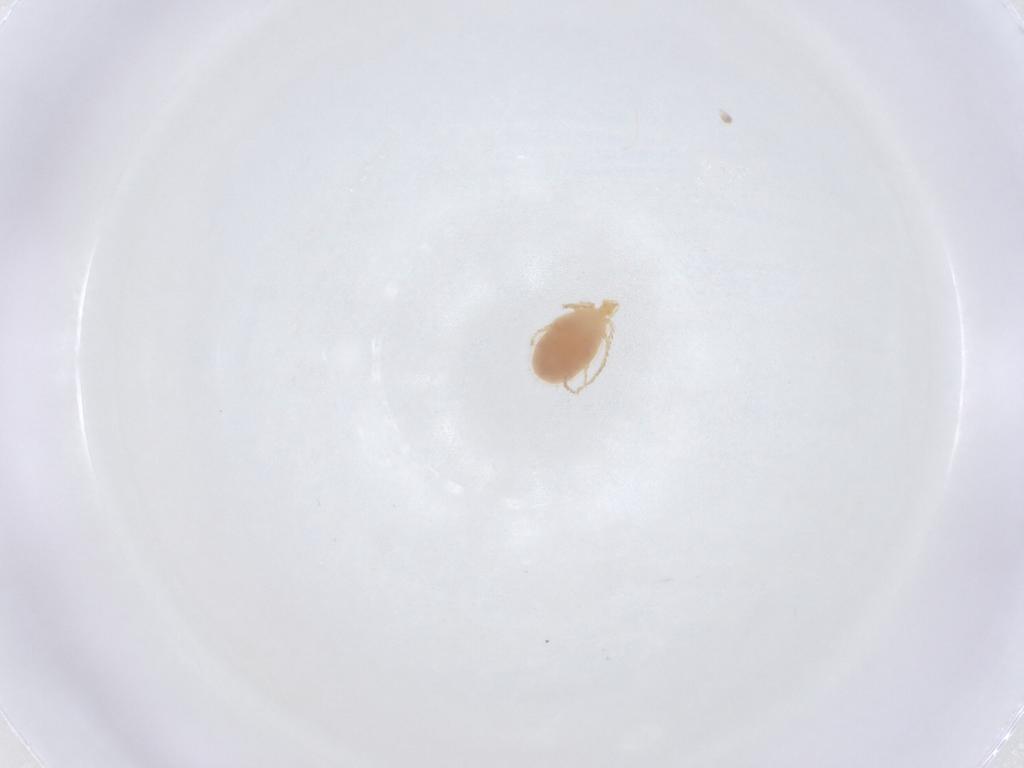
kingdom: Animalia
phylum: Arthropoda
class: Arachnida
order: Trombidiformes
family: Erythraeidae
